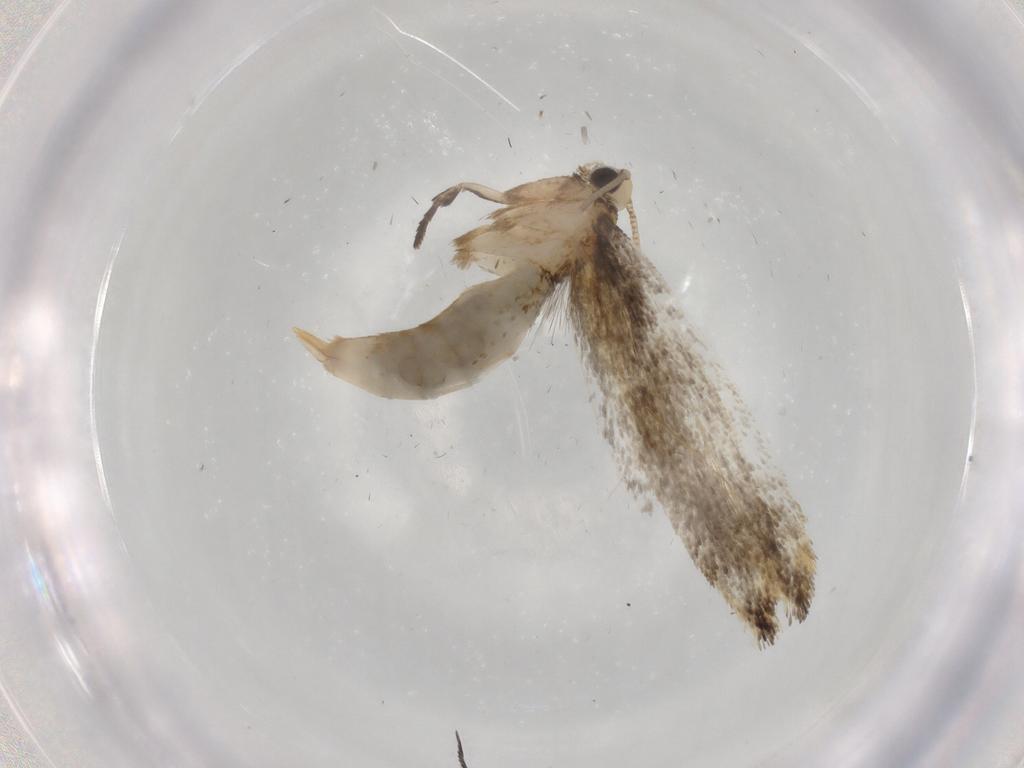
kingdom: Animalia
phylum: Arthropoda
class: Insecta
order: Lepidoptera
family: Tineidae
